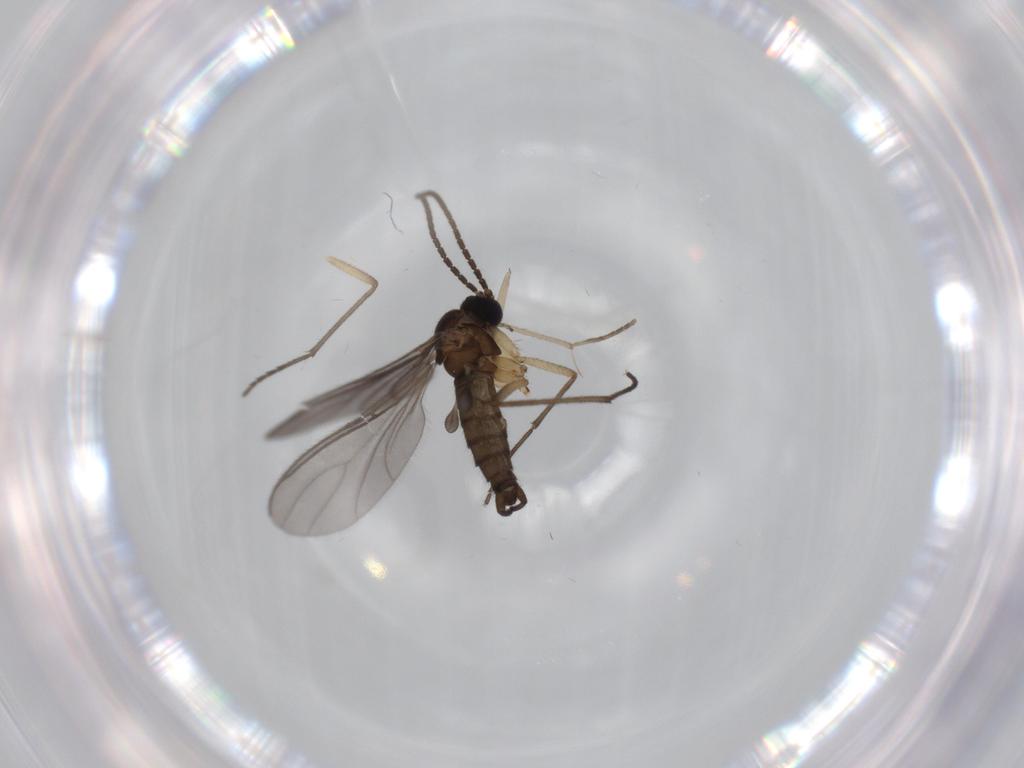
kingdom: Animalia
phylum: Arthropoda
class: Insecta
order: Diptera
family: Sciaridae
